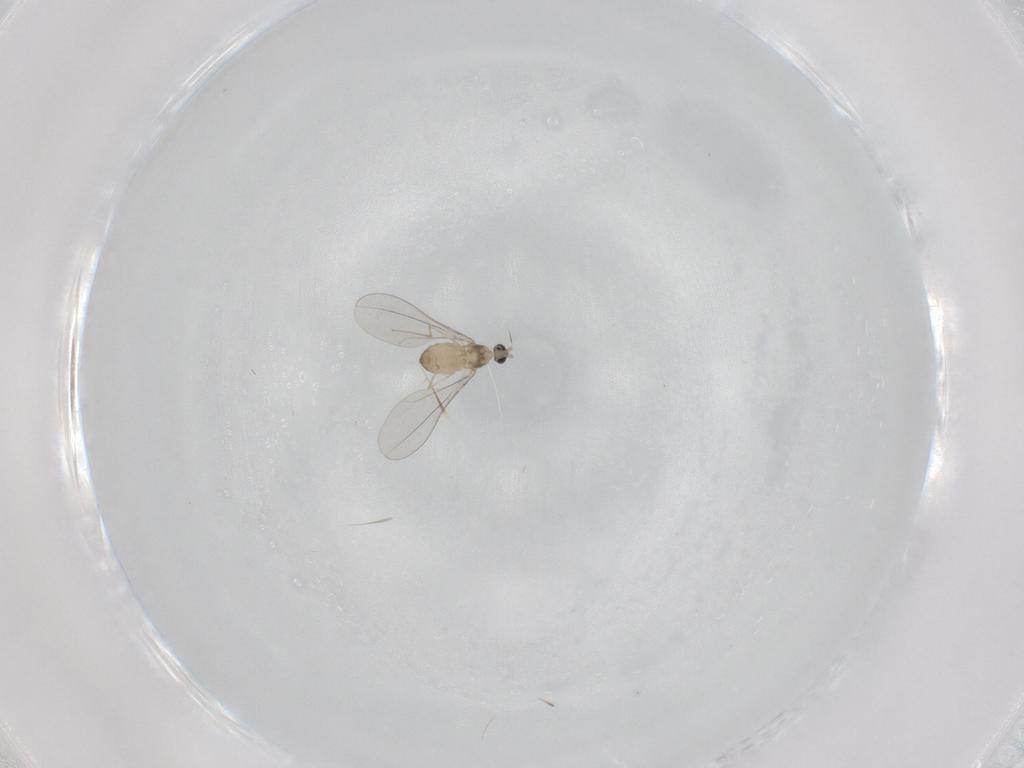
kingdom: Animalia
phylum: Arthropoda
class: Insecta
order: Diptera
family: Cecidomyiidae
